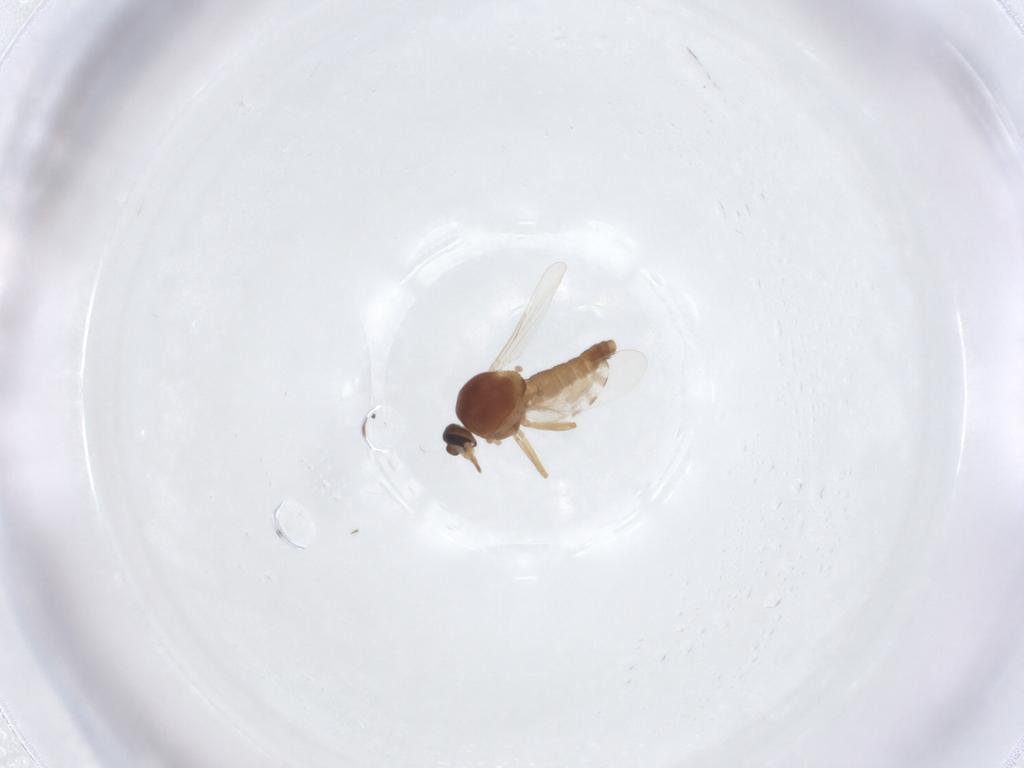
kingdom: Animalia
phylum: Arthropoda
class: Insecta
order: Diptera
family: Ceratopogonidae
